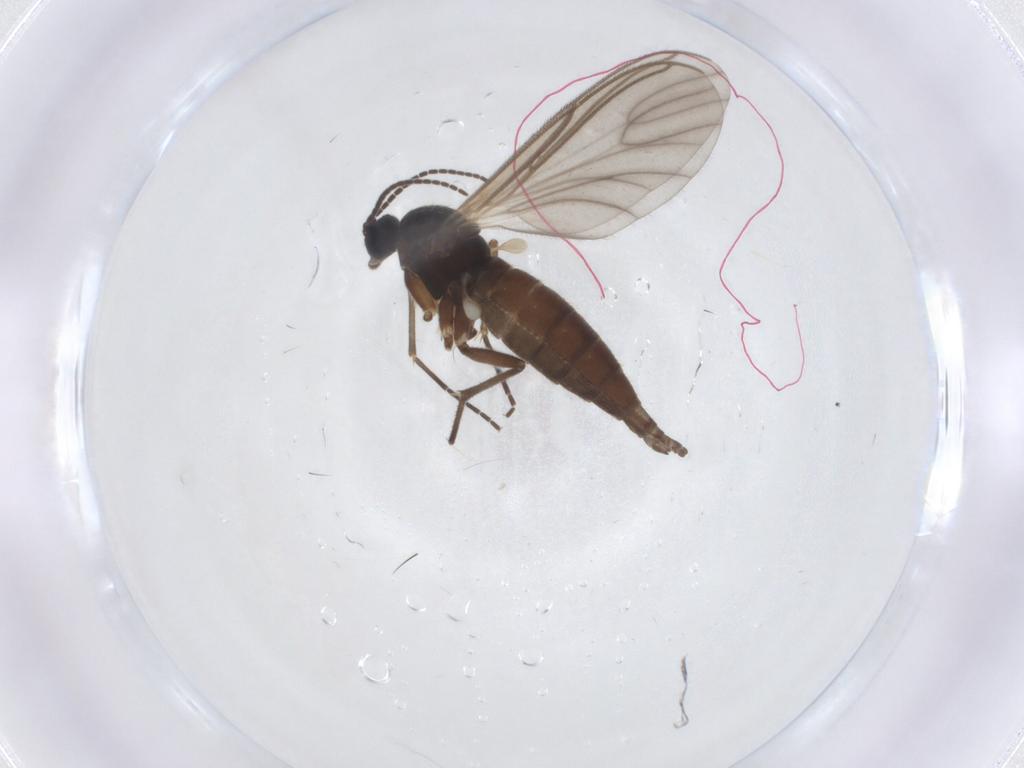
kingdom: Animalia
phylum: Arthropoda
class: Insecta
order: Diptera
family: Sciaridae
